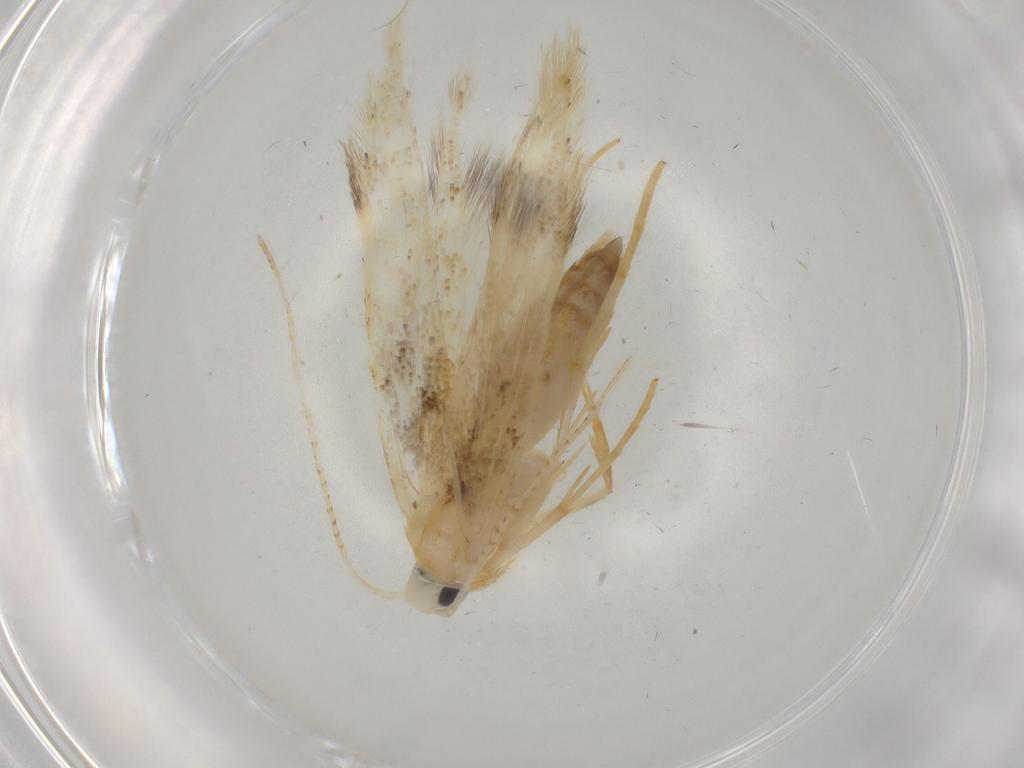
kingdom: Animalia
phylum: Arthropoda
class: Insecta
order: Lepidoptera
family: Gelechiidae
